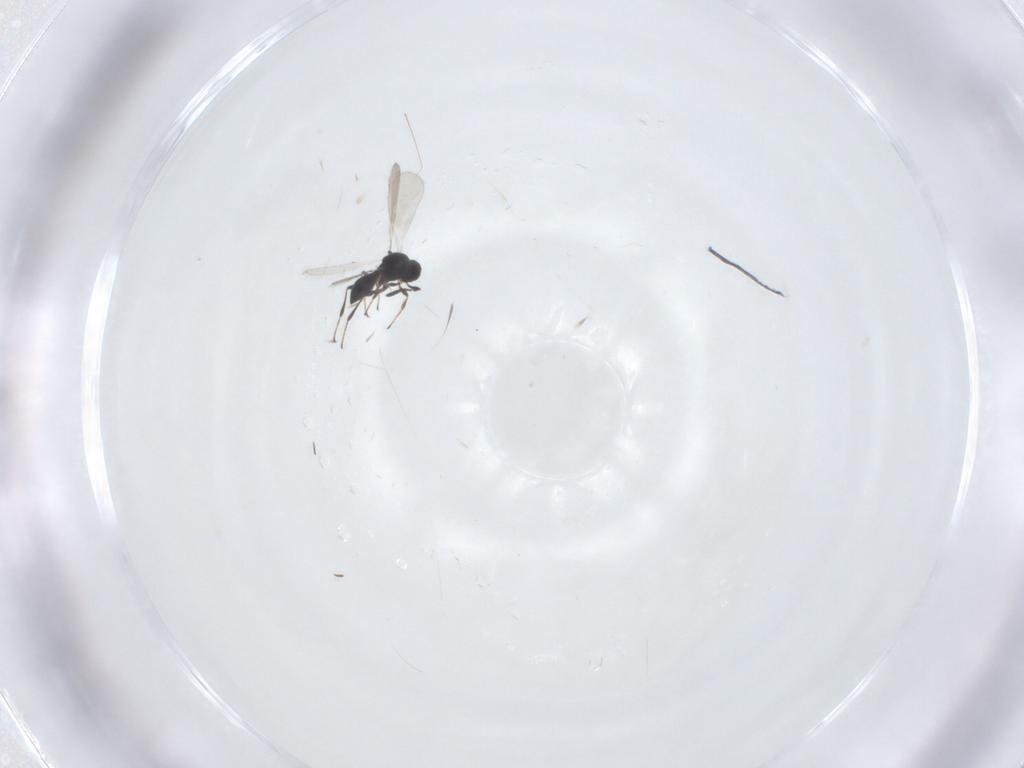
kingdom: Animalia
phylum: Arthropoda
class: Insecta
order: Hymenoptera
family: Platygastridae
